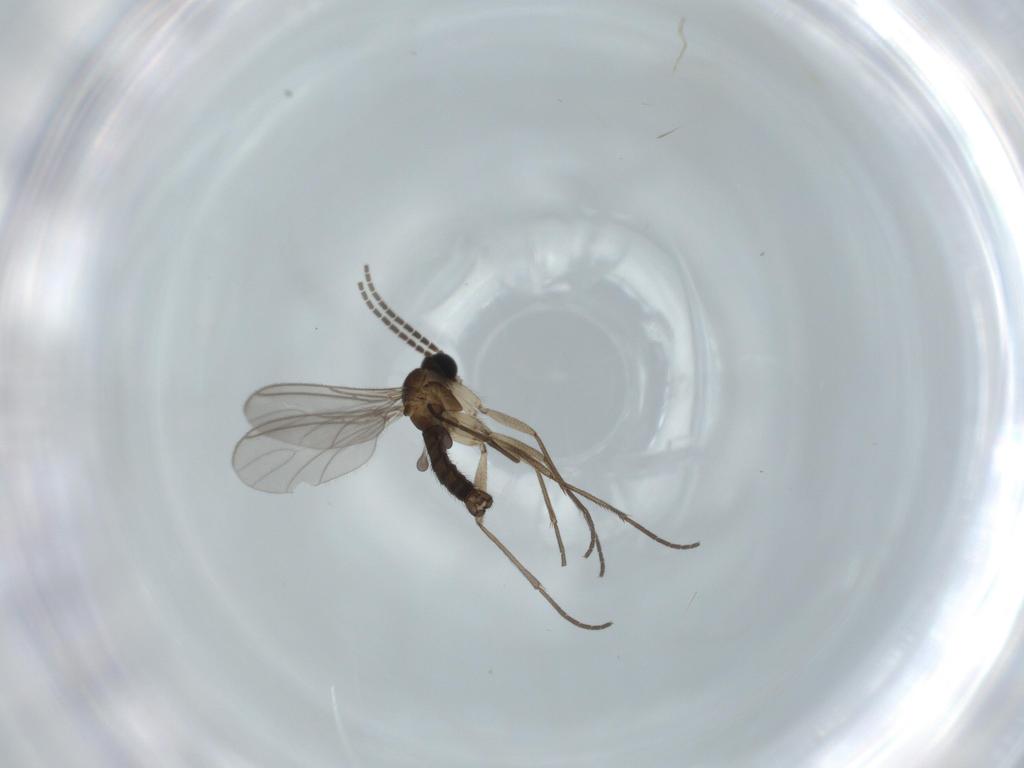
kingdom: Animalia
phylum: Arthropoda
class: Insecta
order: Diptera
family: Sciaridae
